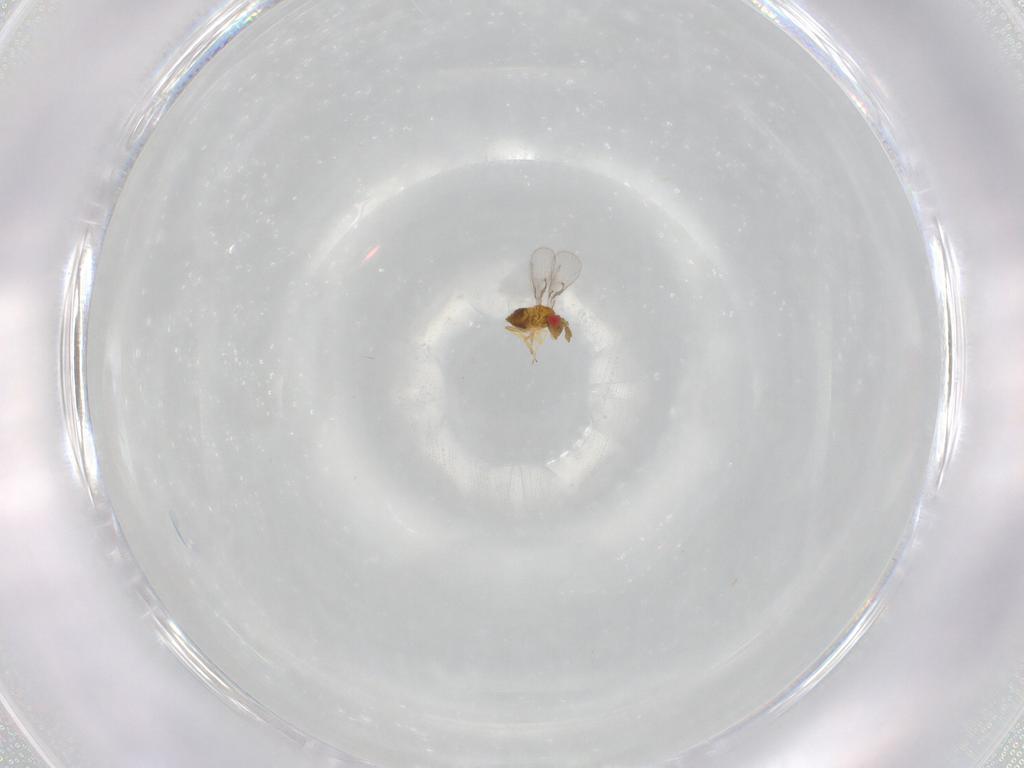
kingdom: Animalia
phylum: Arthropoda
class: Insecta
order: Hymenoptera
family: Trichogrammatidae
